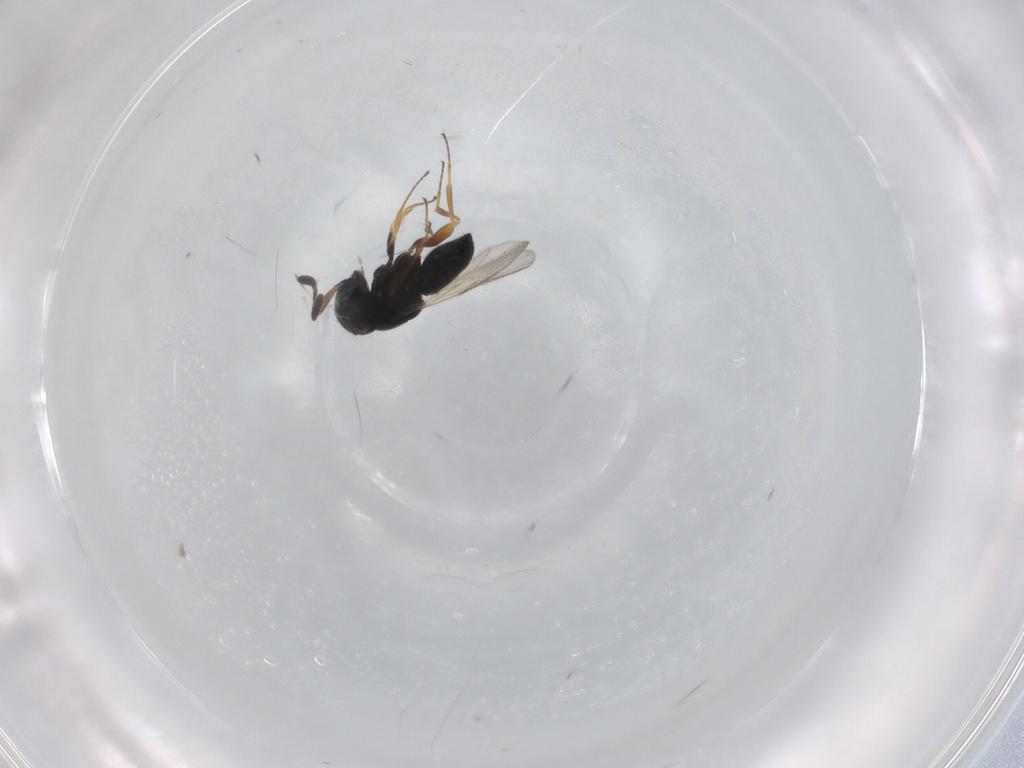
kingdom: Animalia
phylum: Arthropoda
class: Insecta
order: Hymenoptera
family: Scelionidae
